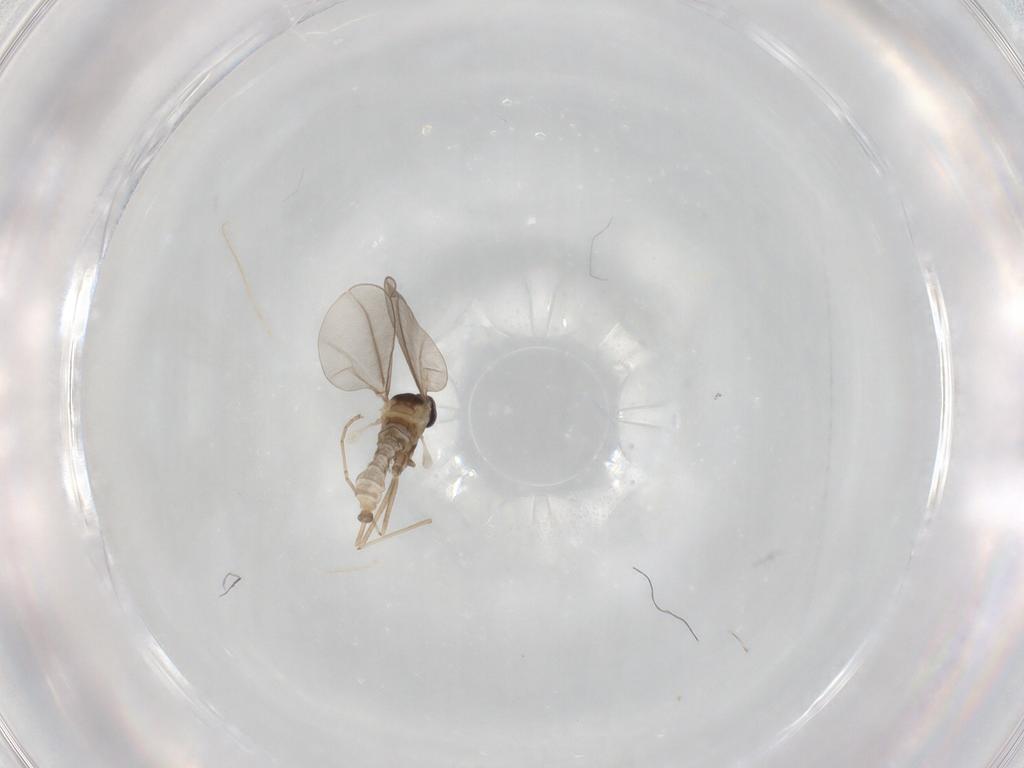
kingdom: Animalia
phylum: Arthropoda
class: Insecta
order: Diptera
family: Cecidomyiidae
